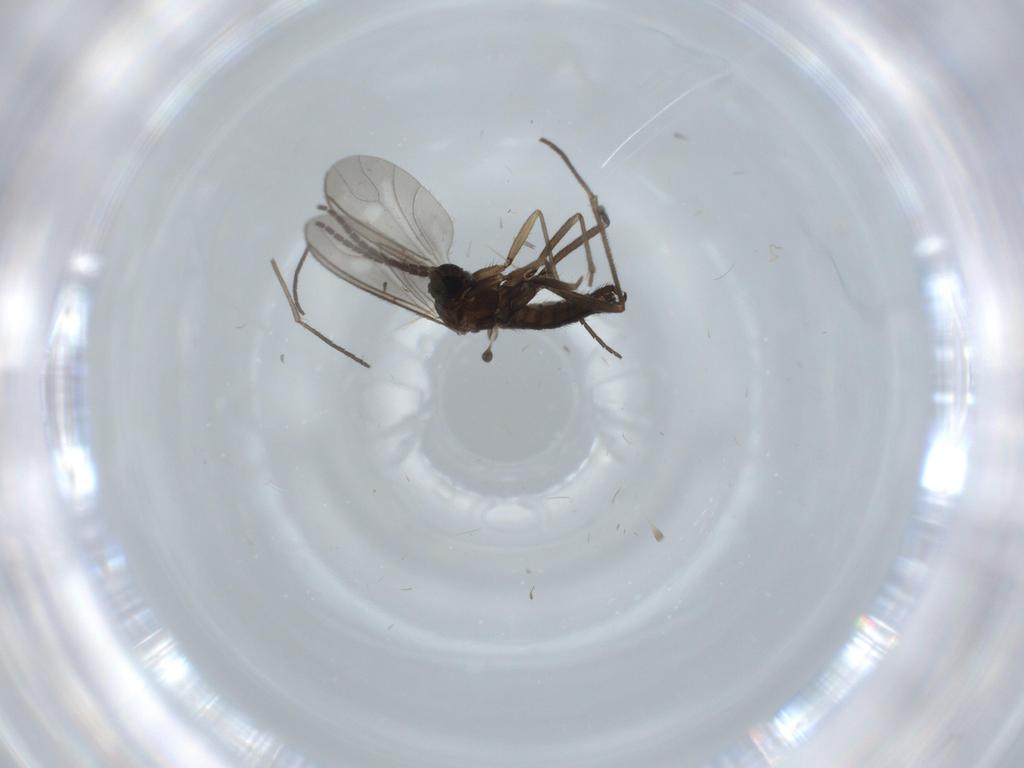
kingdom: Animalia
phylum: Arthropoda
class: Insecta
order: Diptera
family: Sciaridae
